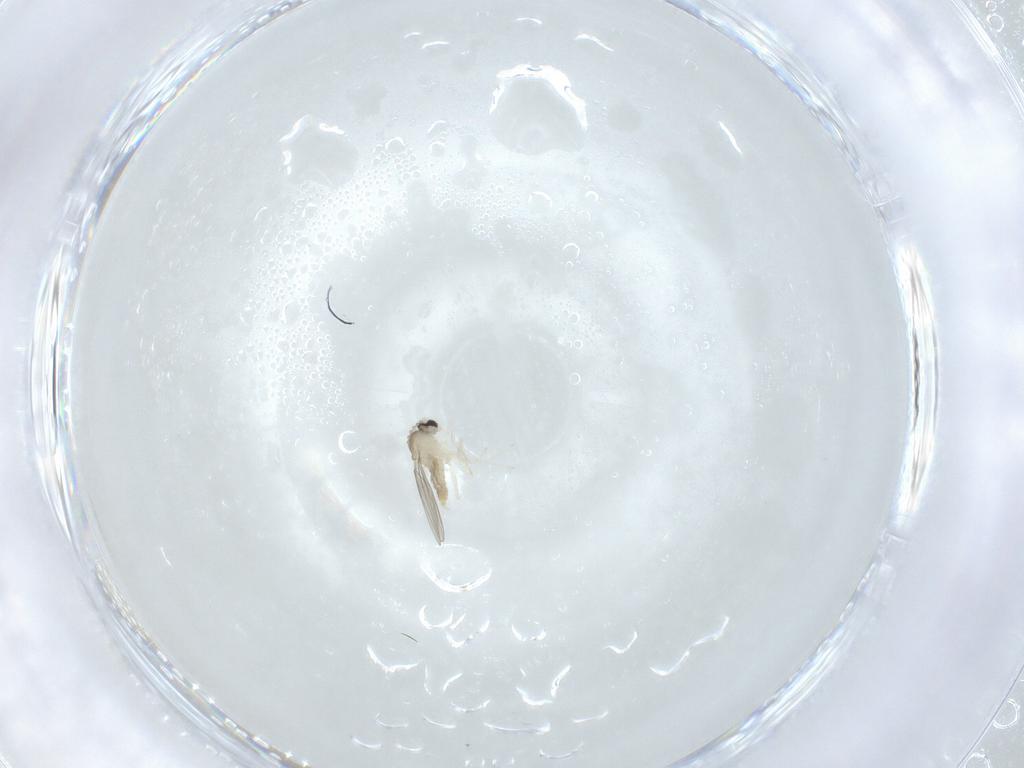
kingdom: Animalia
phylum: Arthropoda
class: Insecta
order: Diptera
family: Cecidomyiidae
